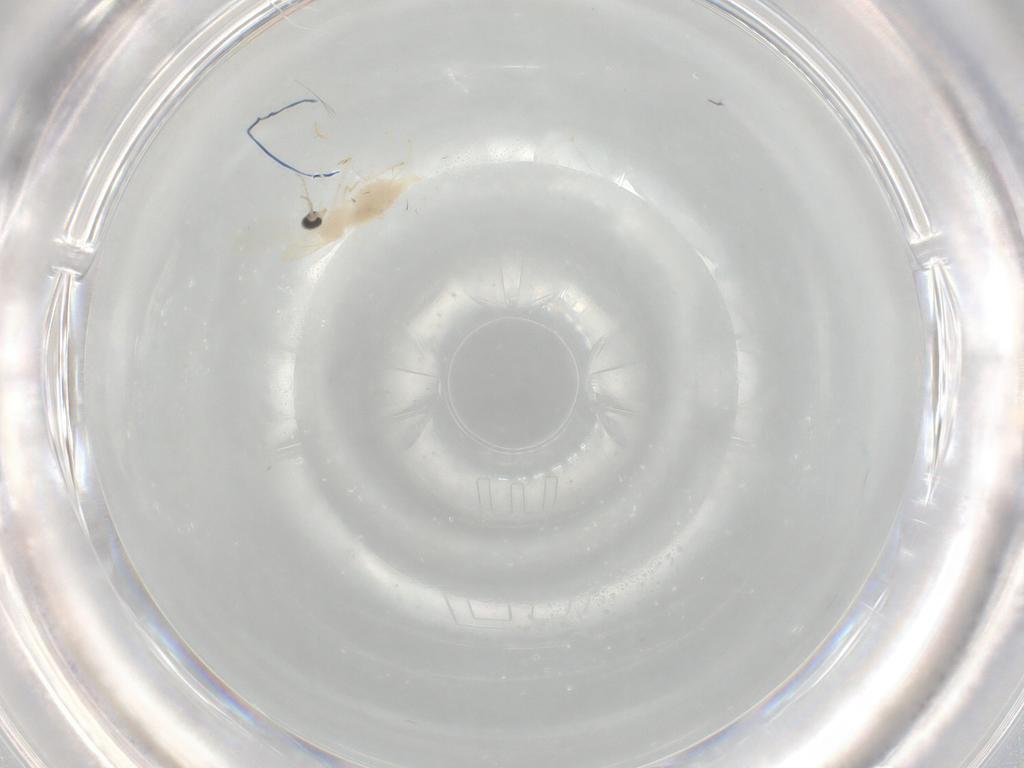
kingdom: Animalia
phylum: Arthropoda
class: Insecta
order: Diptera
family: Cecidomyiidae
